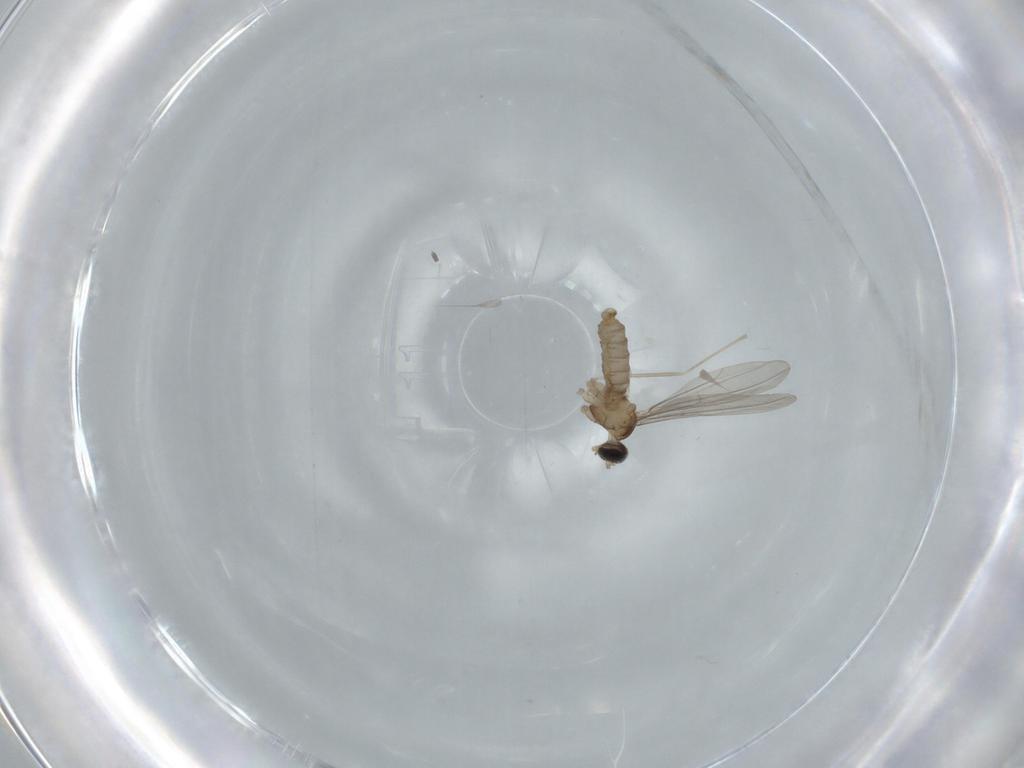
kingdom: Animalia
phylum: Arthropoda
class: Insecta
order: Diptera
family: Cecidomyiidae
